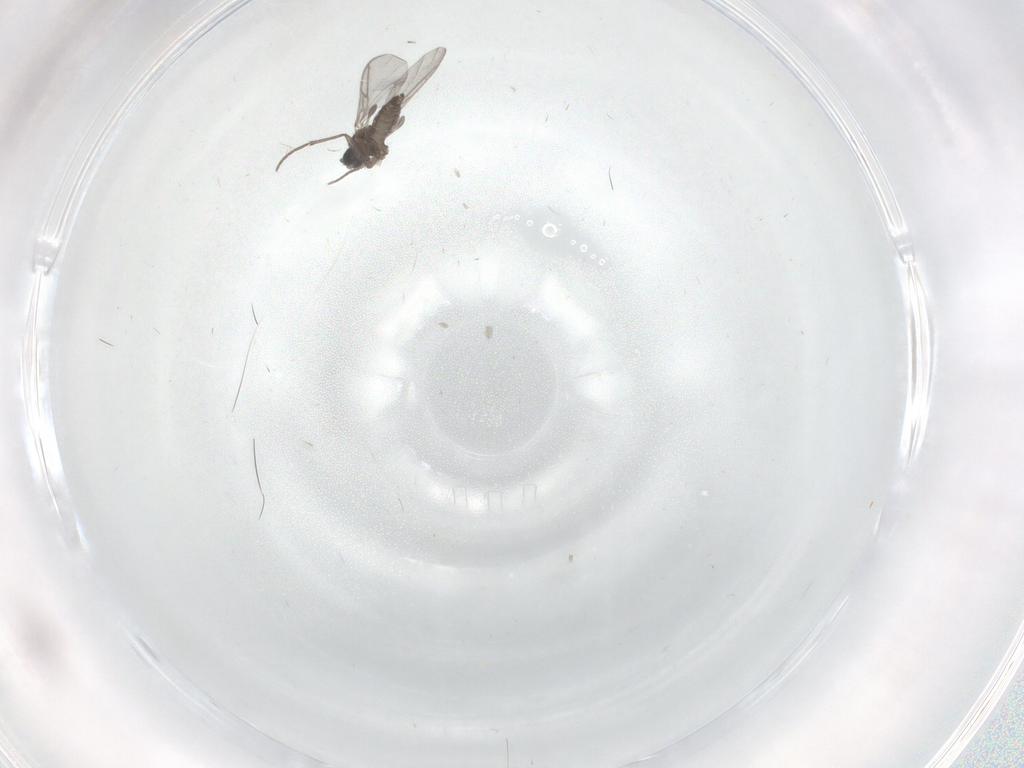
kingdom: Animalia
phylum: Arthropoda
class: Insecta
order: Diptera
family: Sciaridae
